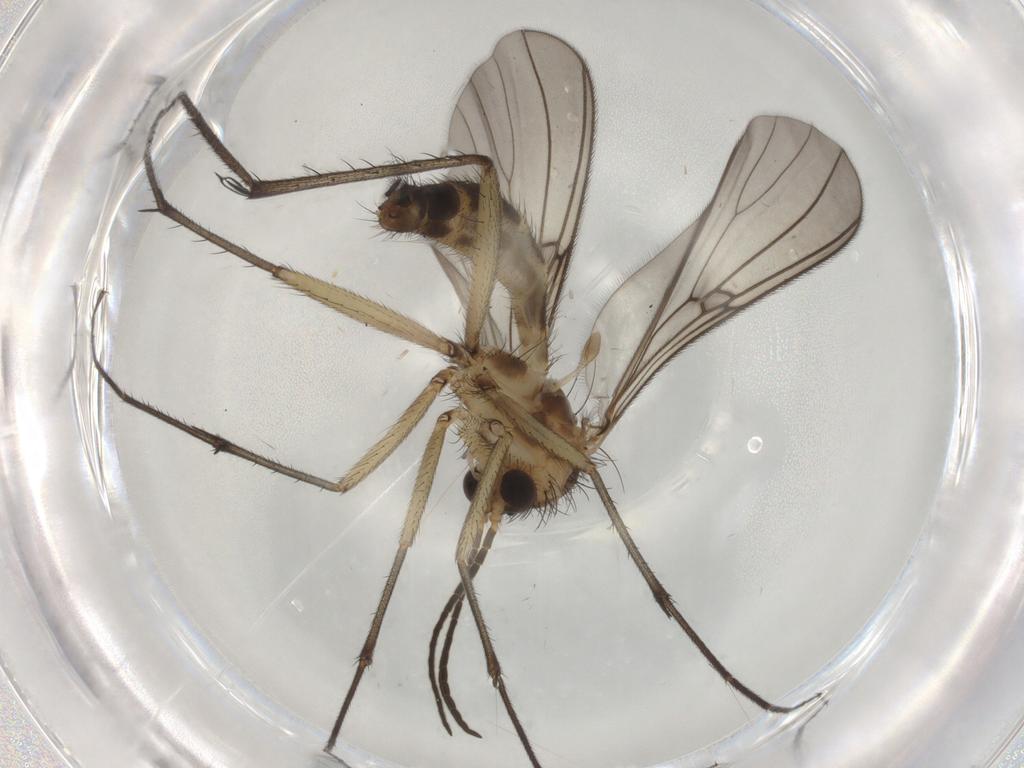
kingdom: Animalia
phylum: Arthropoda
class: Insecta
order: Diptera
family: Mycetophilidae
